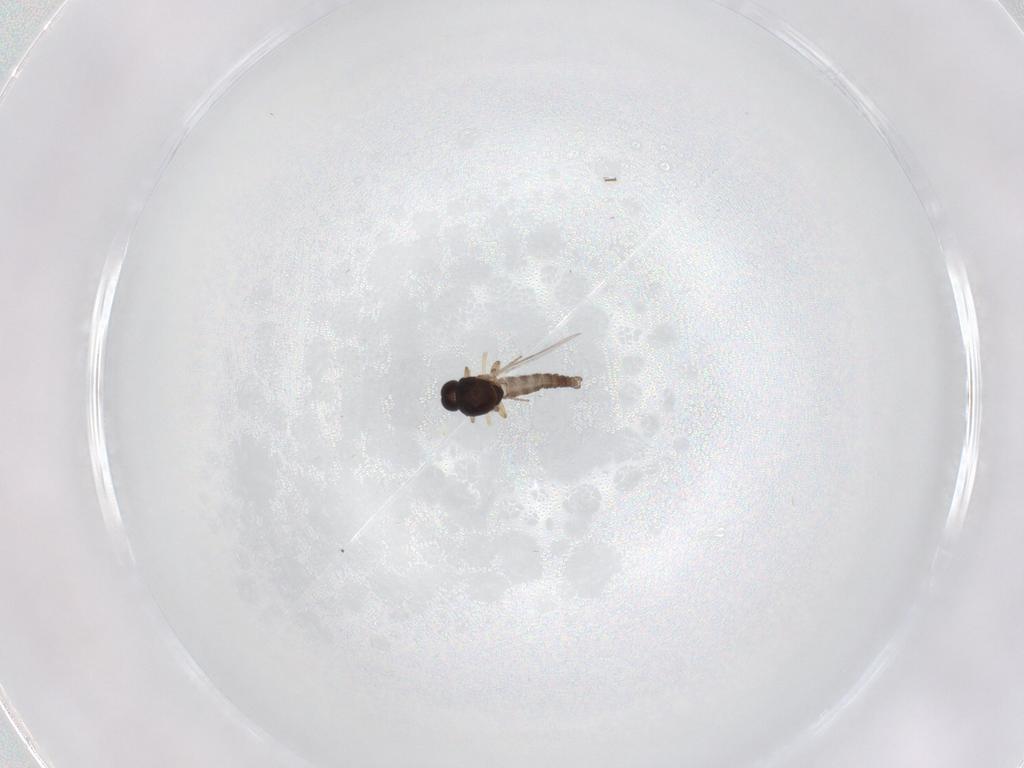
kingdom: Animalia
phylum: Arthropoda
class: Insecta
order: Diptera
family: Ceratopogonidae
